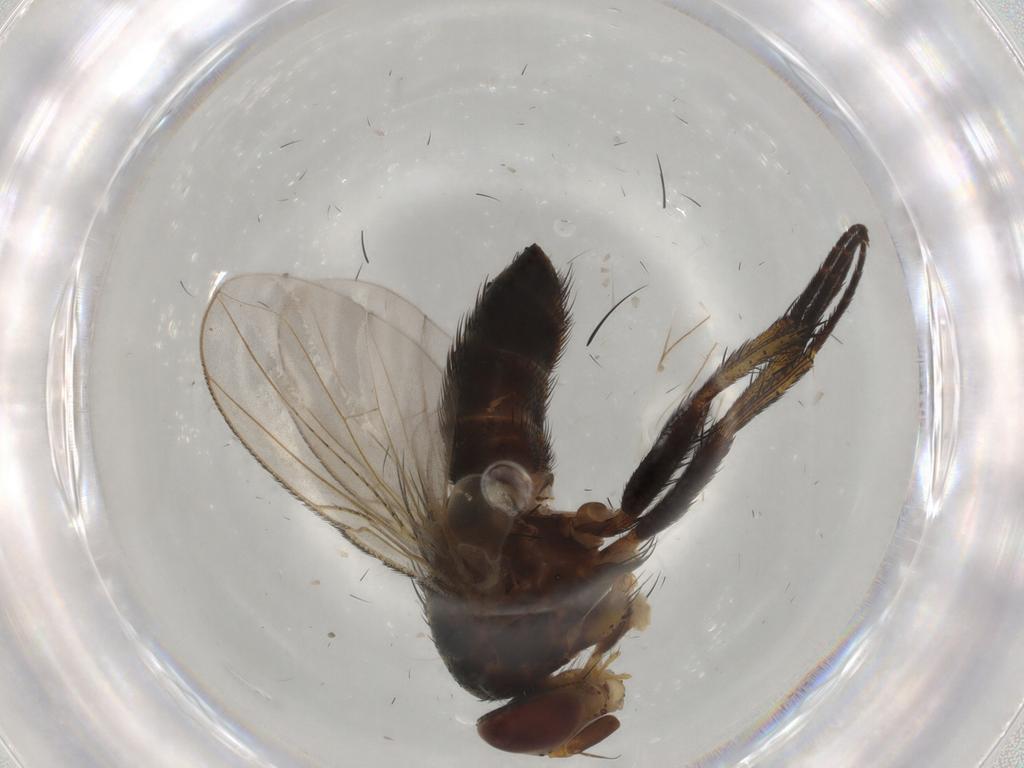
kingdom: Animalia
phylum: Arthropoda
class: Insecta
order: Diptera
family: Tachinidae
